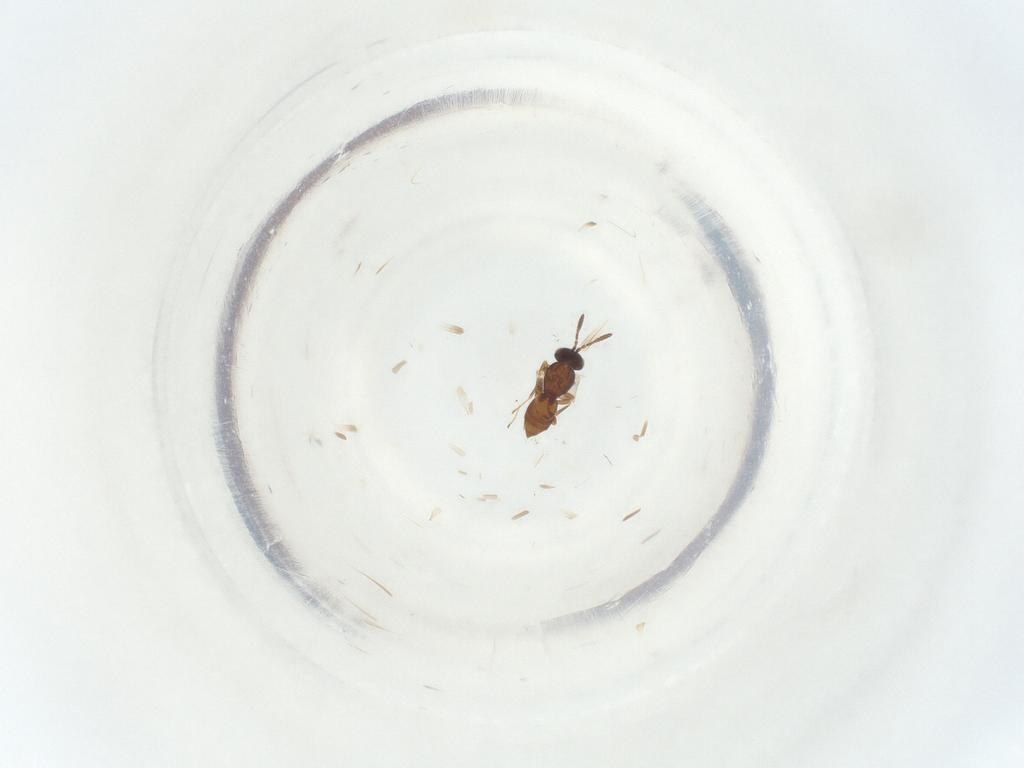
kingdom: Animalia
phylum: Arthropoda
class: Insecta
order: Hymenoptera
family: Scelionidae
